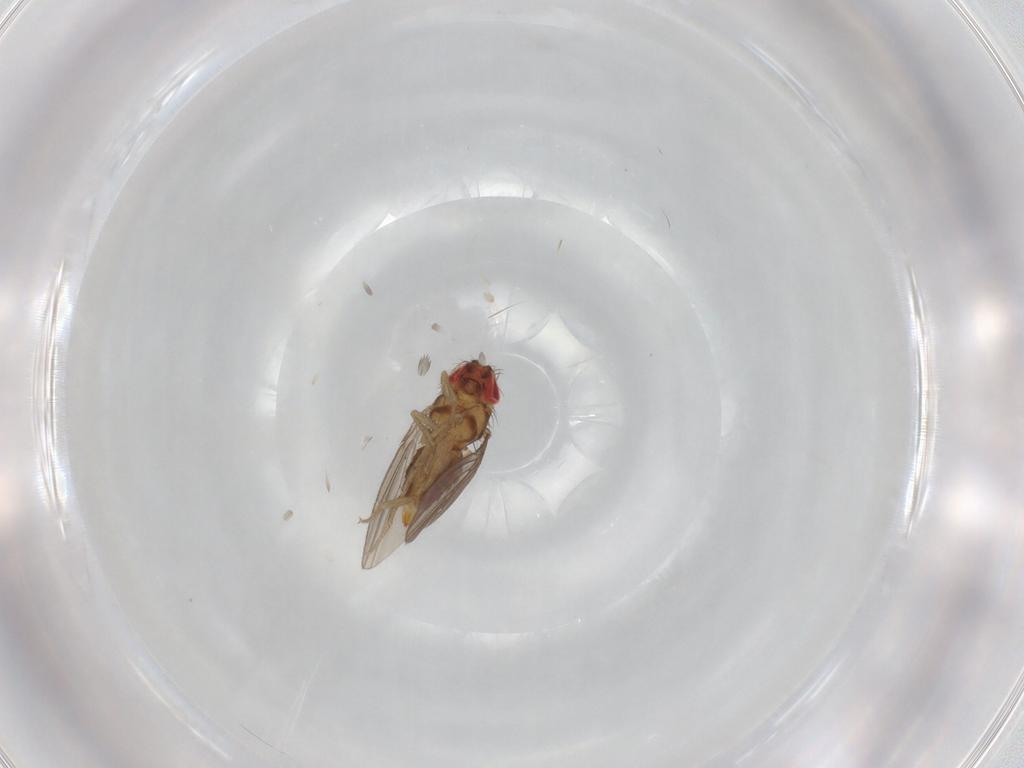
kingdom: Animalia
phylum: Arthropoda
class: Insecta
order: Diptera
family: Drosophilidae
